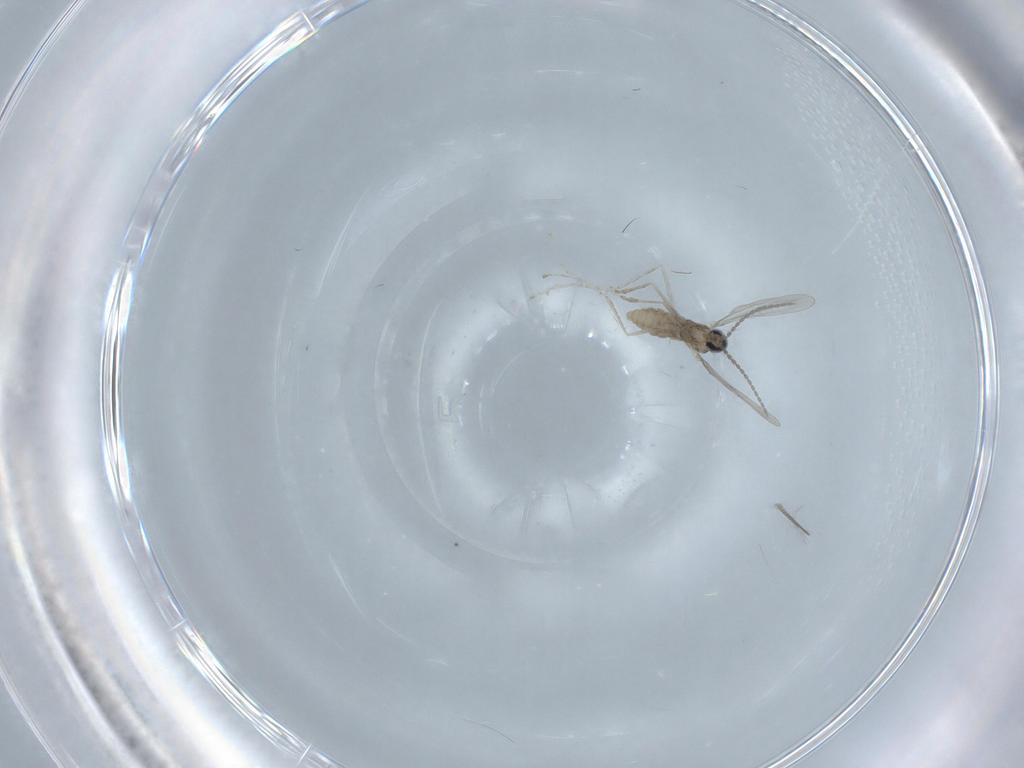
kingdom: Animalia
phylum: Arthropoda
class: Insecta
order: Diptera
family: Cecidomyiidae
